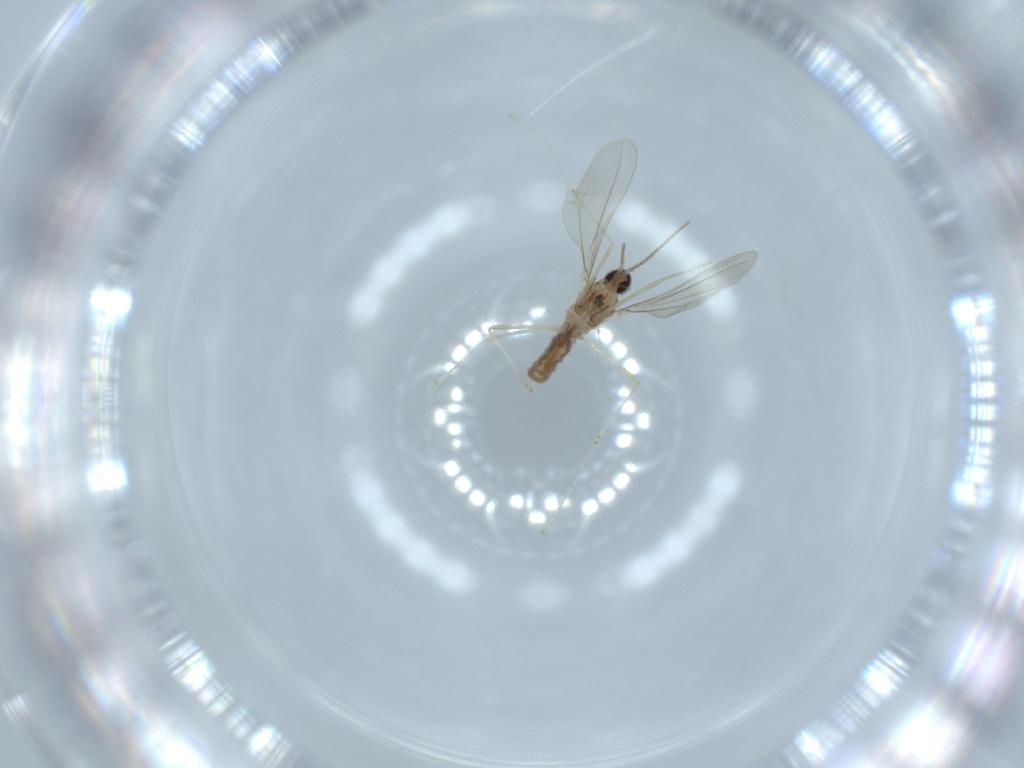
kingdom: Animalia
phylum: Arthropoda
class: Insecta
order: Diptera
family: Cecidomyiidae
